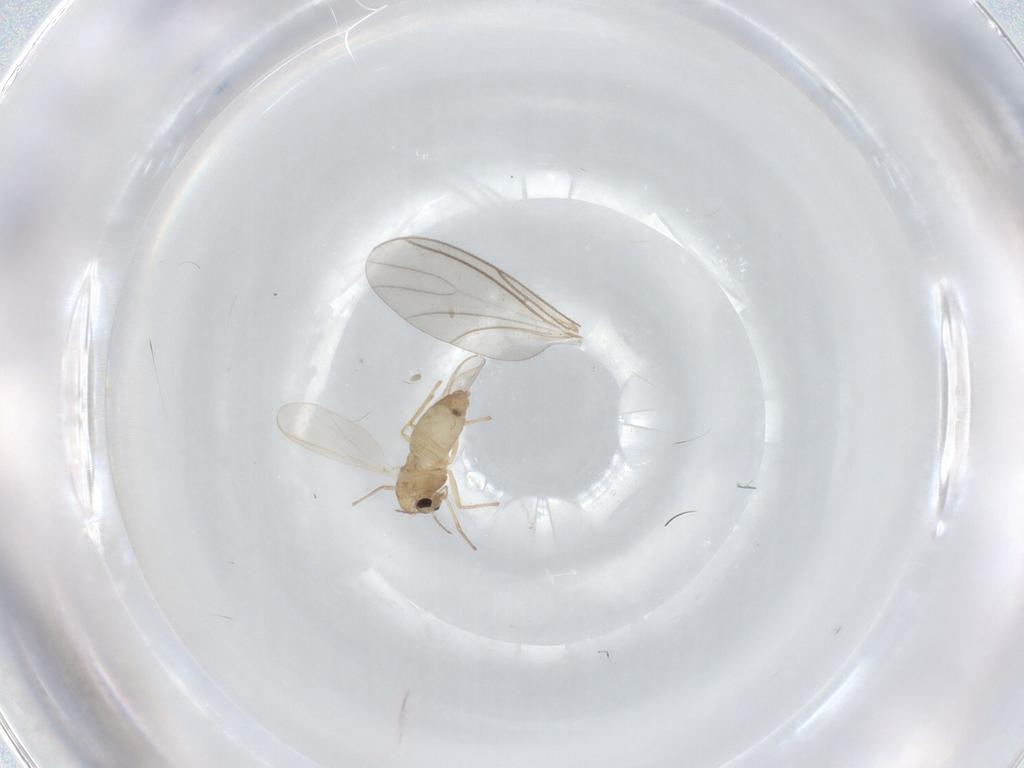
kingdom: Animalia
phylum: Arthropoda
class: Insecta
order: Diptera
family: Chironomidae
